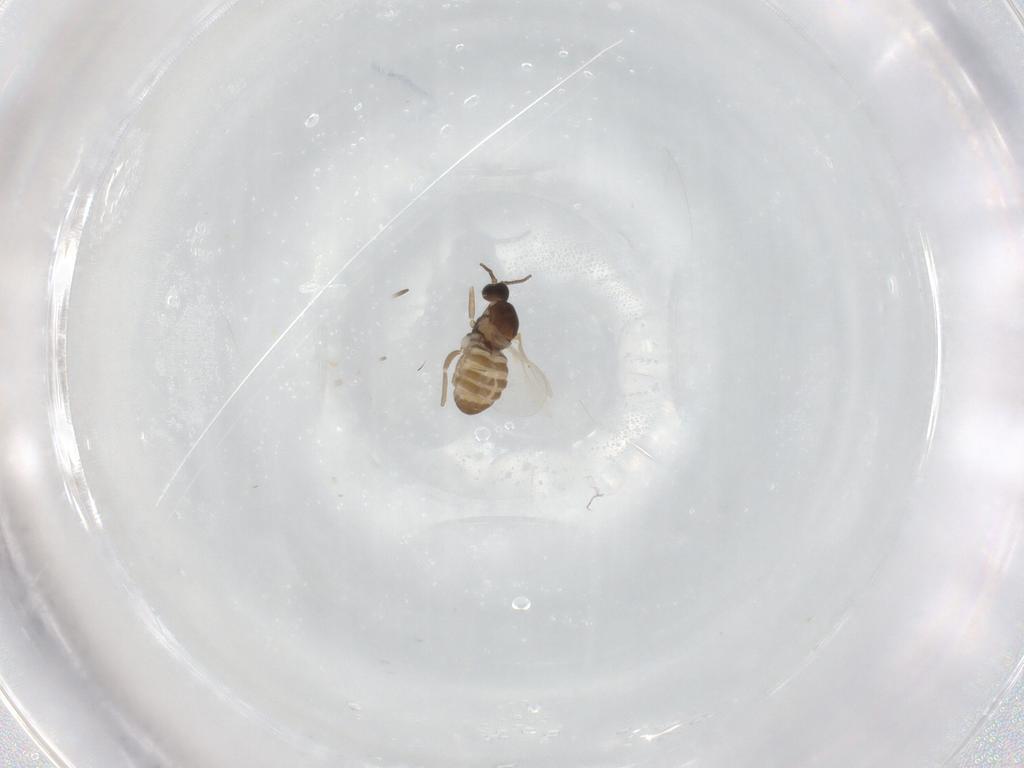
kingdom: Animalia
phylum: Arthropoda
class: Insecta
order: Diptera
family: Cecidomyiidae
